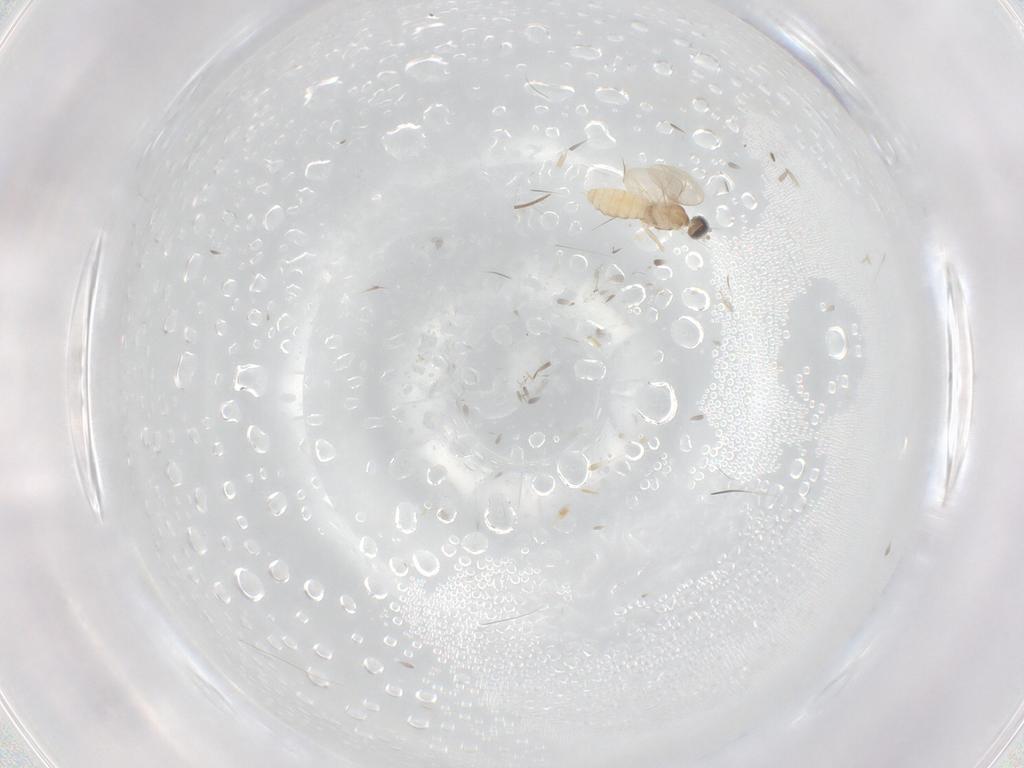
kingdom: Animalia
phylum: Arthropoda
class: Insecta
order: Diptera
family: Cecidomyiidae
